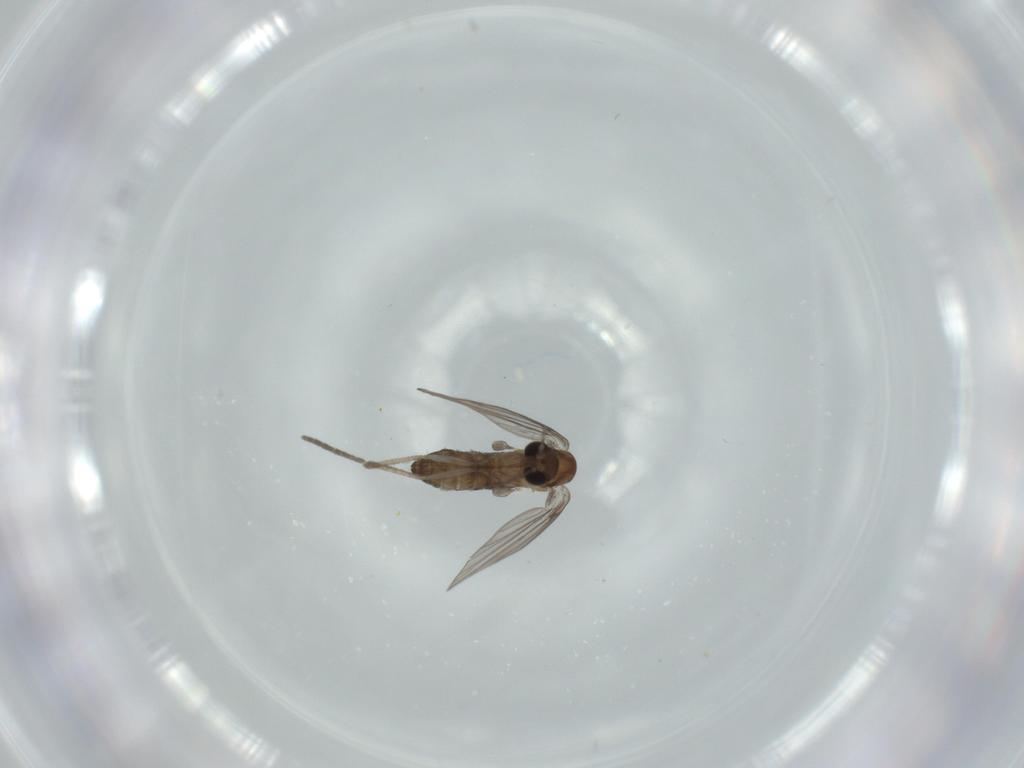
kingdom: Animalia
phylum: Arthropoda
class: Insecta
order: Diptera
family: Psychodidae
